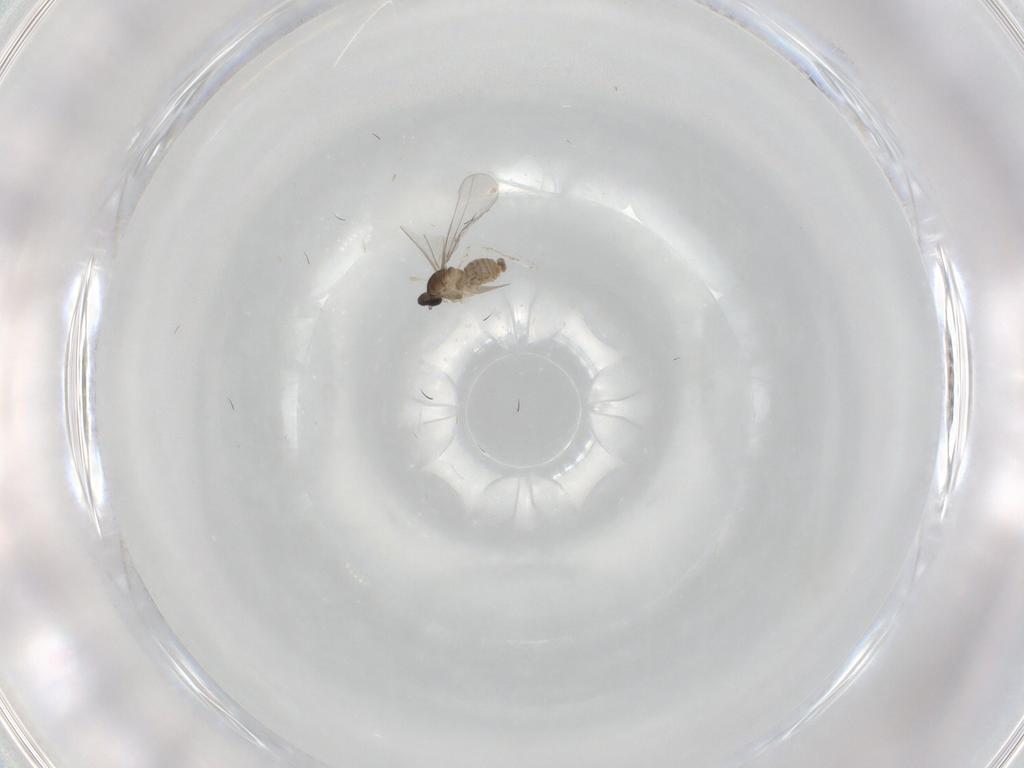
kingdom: Animalia
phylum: Arthropoda
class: Insecta
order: Diptera
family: Cecidomyiidae
